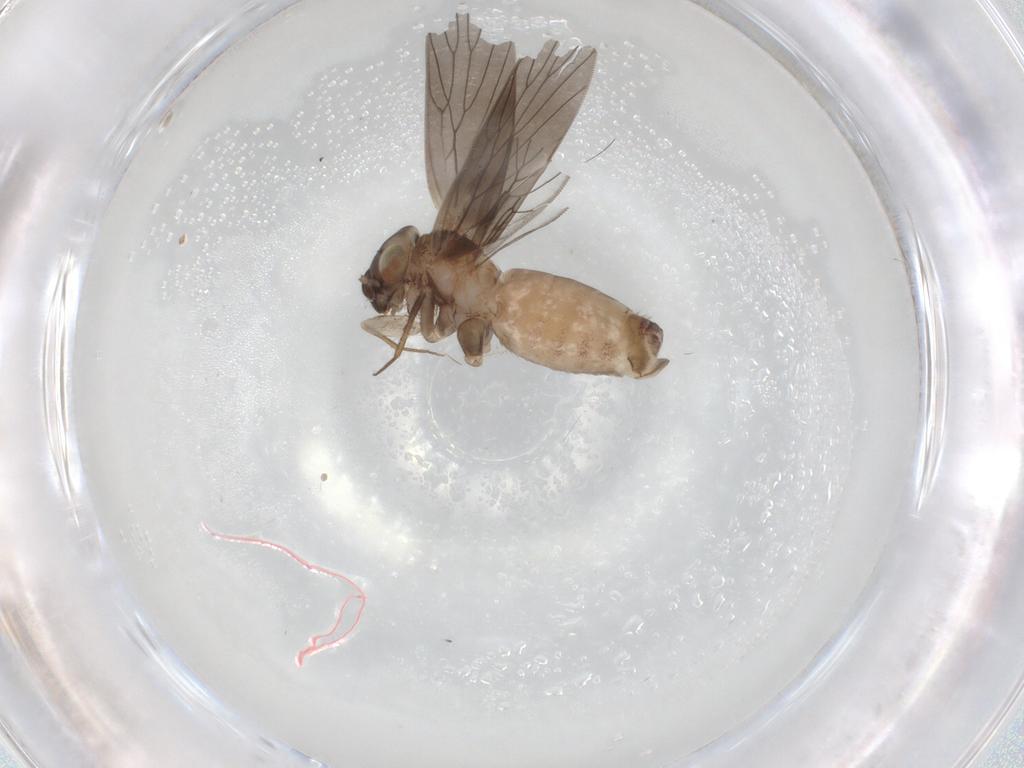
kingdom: Animalia
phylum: Arthropoda
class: Insecta
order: Psocodea
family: Lepidopsocidae
